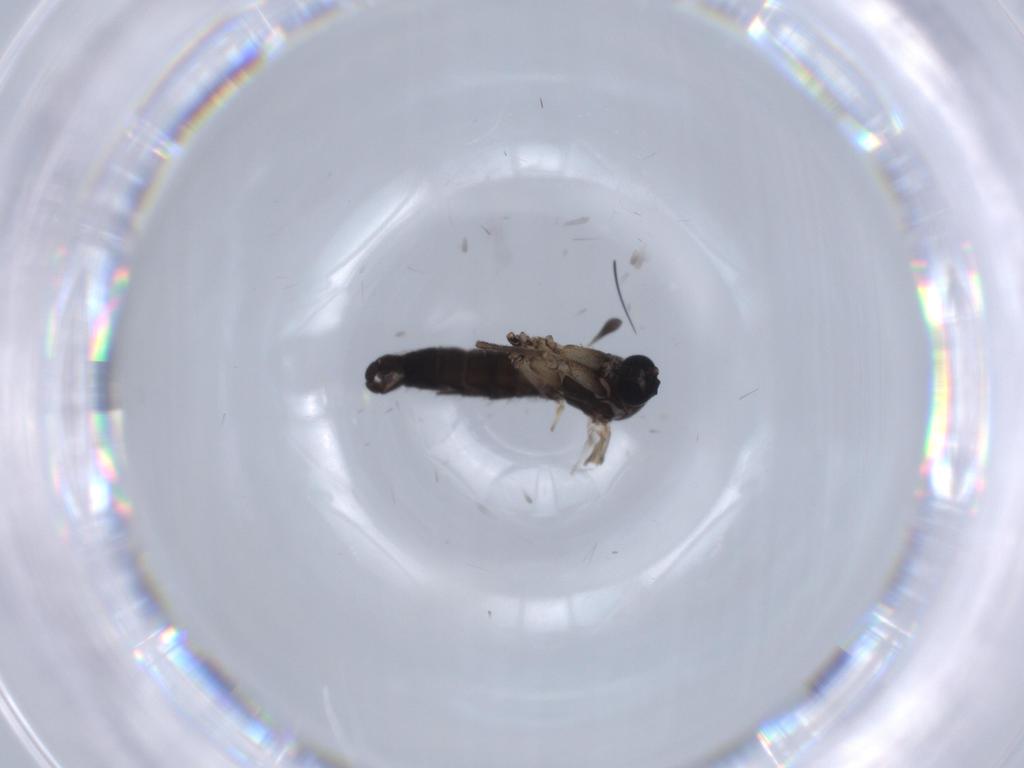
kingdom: Animalia
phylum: Arthropoda
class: Insecta
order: Diptera
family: Sciaridae
